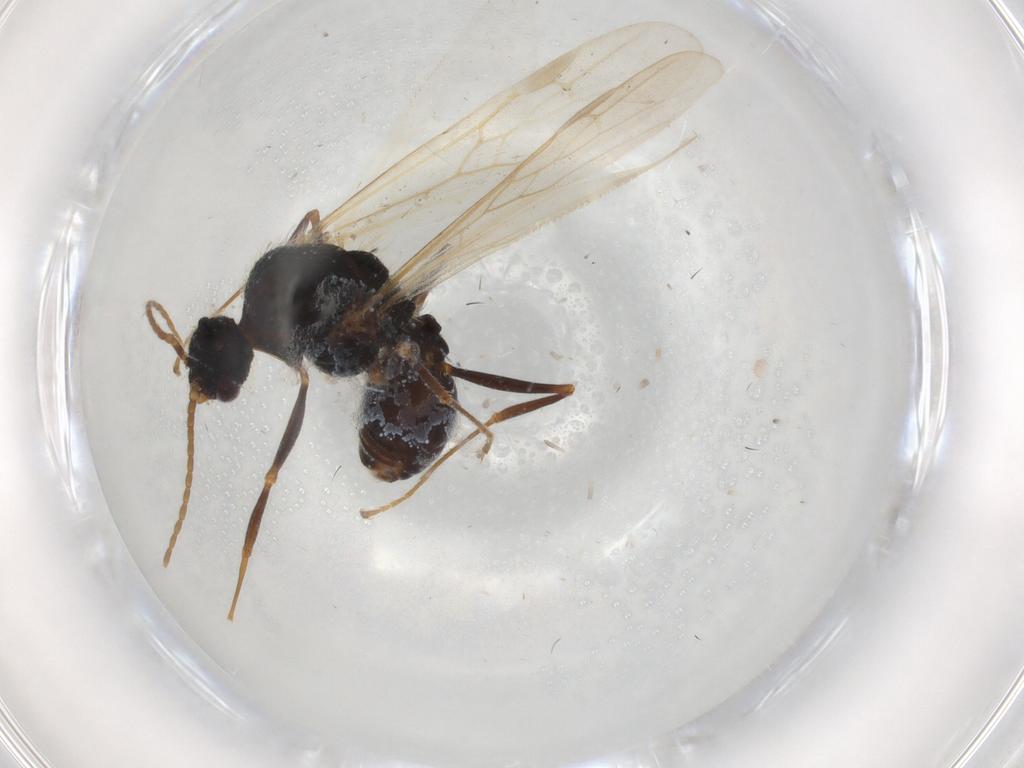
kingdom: Animalia
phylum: Arthropoda
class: Insecta
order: Hymenoptera
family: Formicidae
